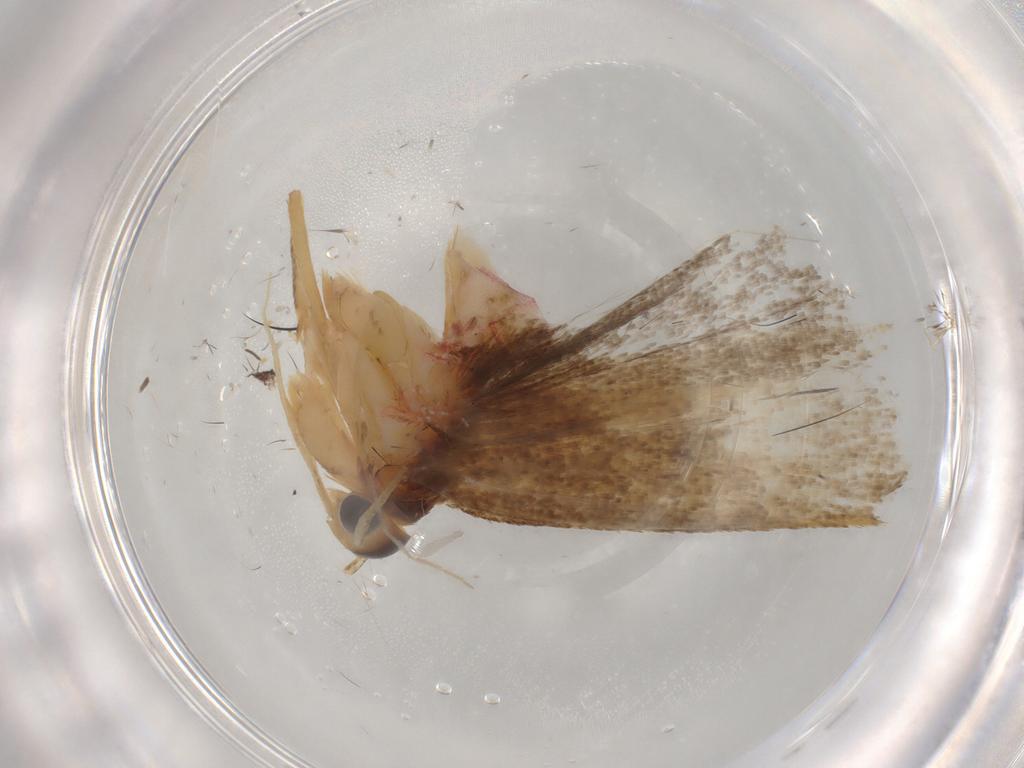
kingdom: Animalia
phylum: Arthropoda
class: Insecta
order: Lepidoptera
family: Autostichidae
